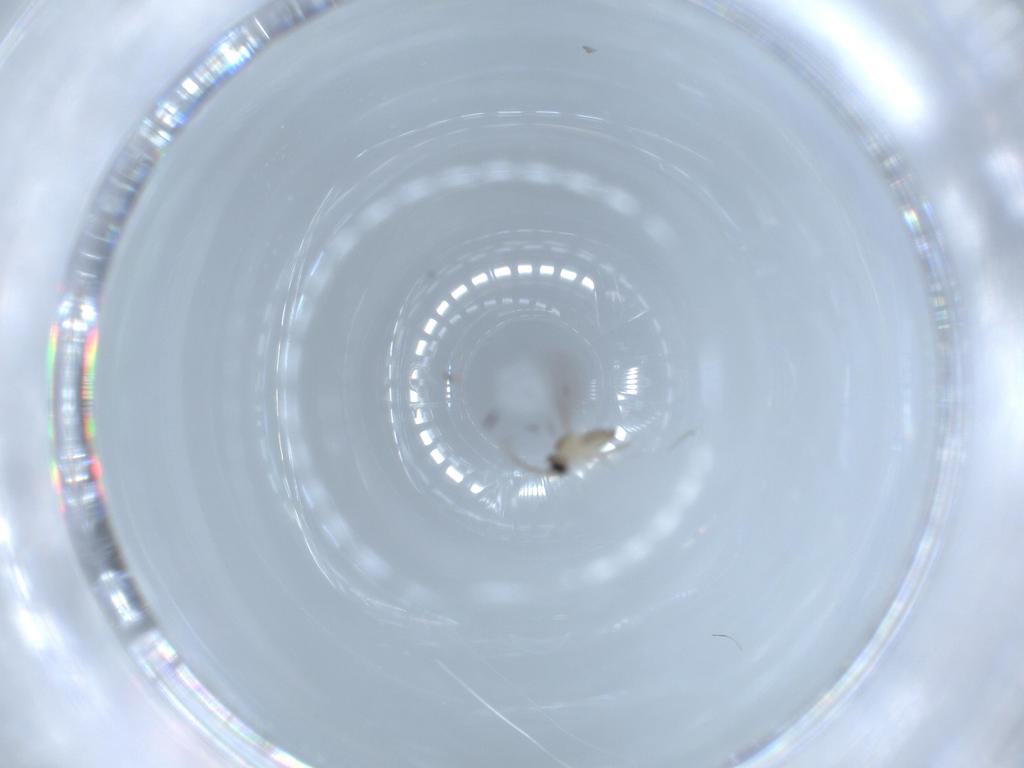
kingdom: Animalia
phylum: Arthropoda
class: Insecta
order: Diptera
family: Cecidomyiidae
